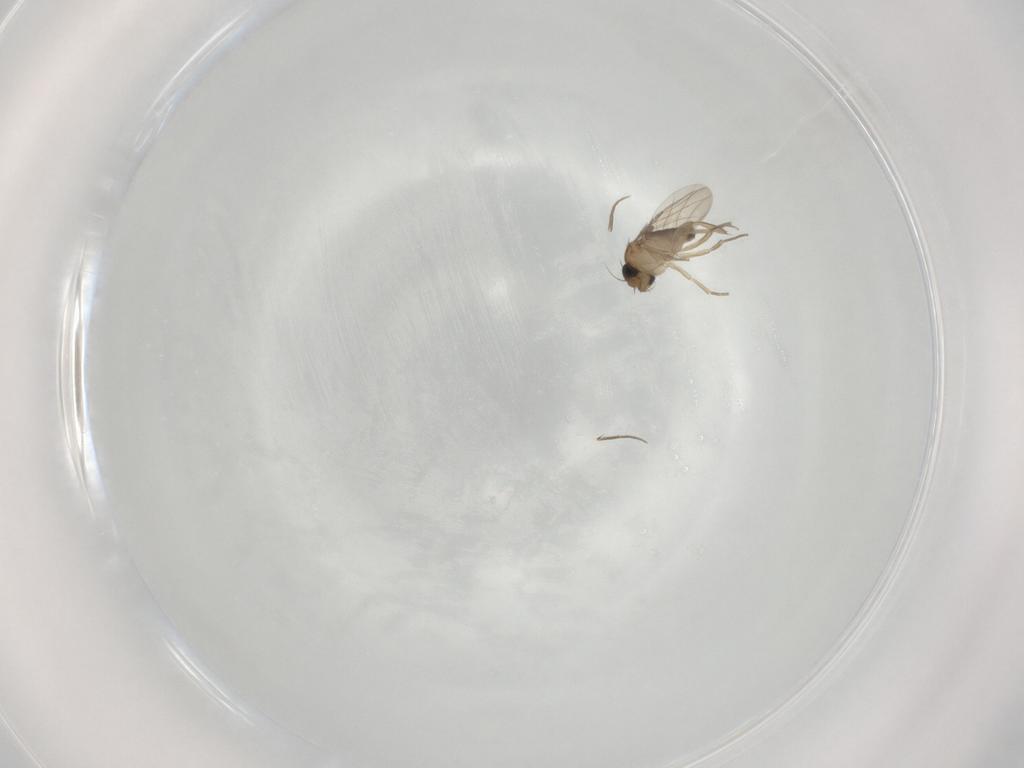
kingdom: Animalia
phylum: Arthropoda
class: Insecta
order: Diptera
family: Phoridae
